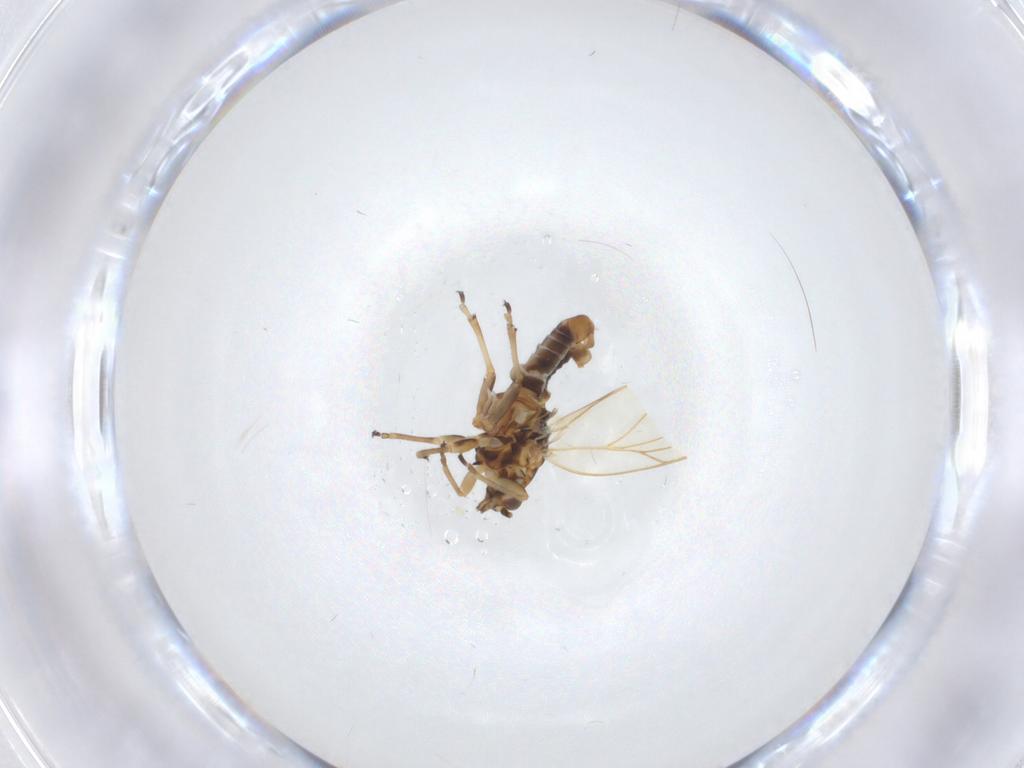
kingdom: Animalia
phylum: Arthropoda
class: Insecta
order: Hemiptera
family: Triozidae
